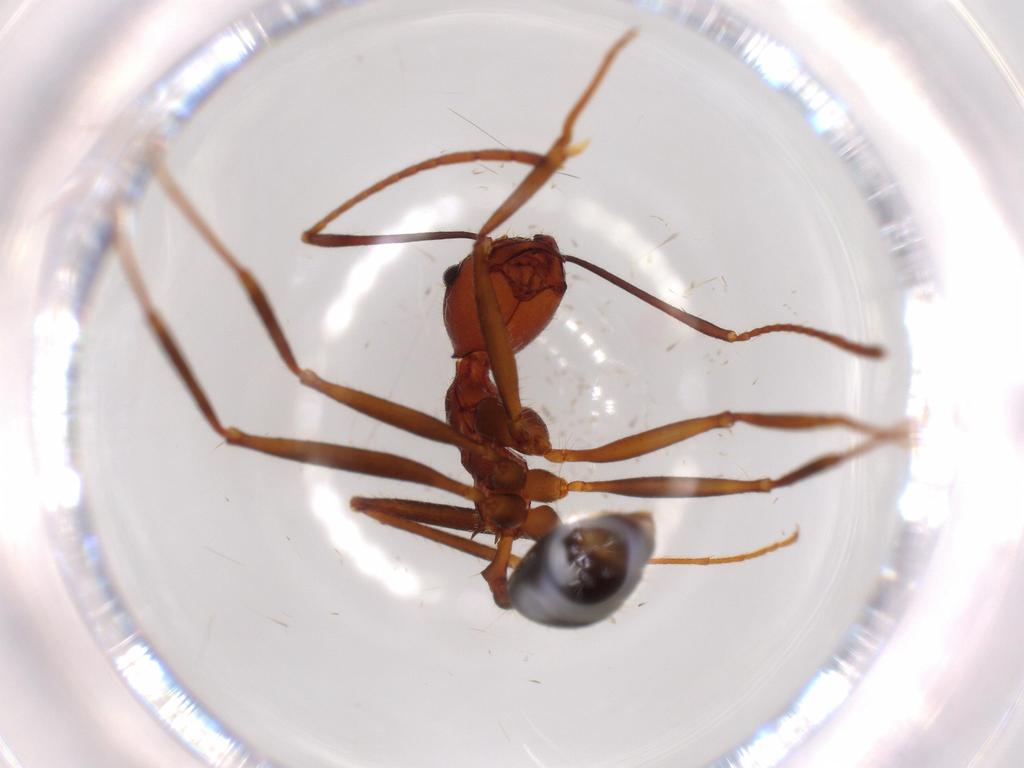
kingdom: Animalia
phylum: Arthropoda
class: Insecta
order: Hymenoptera
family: Formicidae
